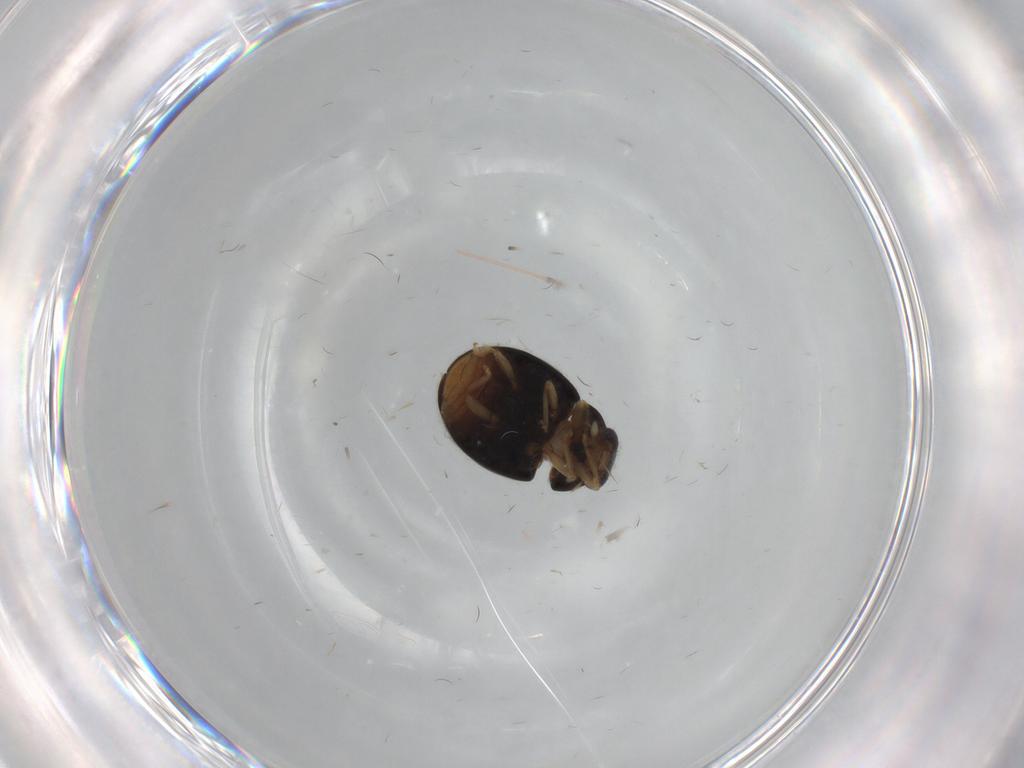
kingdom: Animalia
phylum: Arthropoda
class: Insecta
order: Coleoptera
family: Coccinellidae
